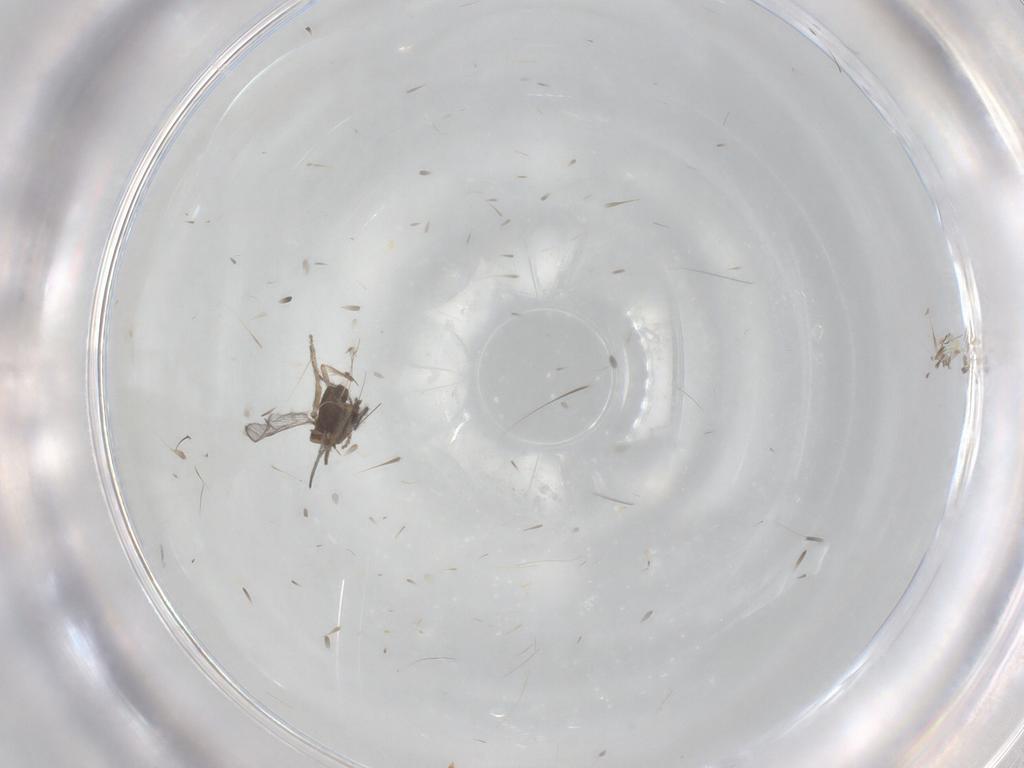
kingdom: Animalia
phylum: Arthropoda
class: Insecta
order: Diptera
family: Ceratopogonidae
